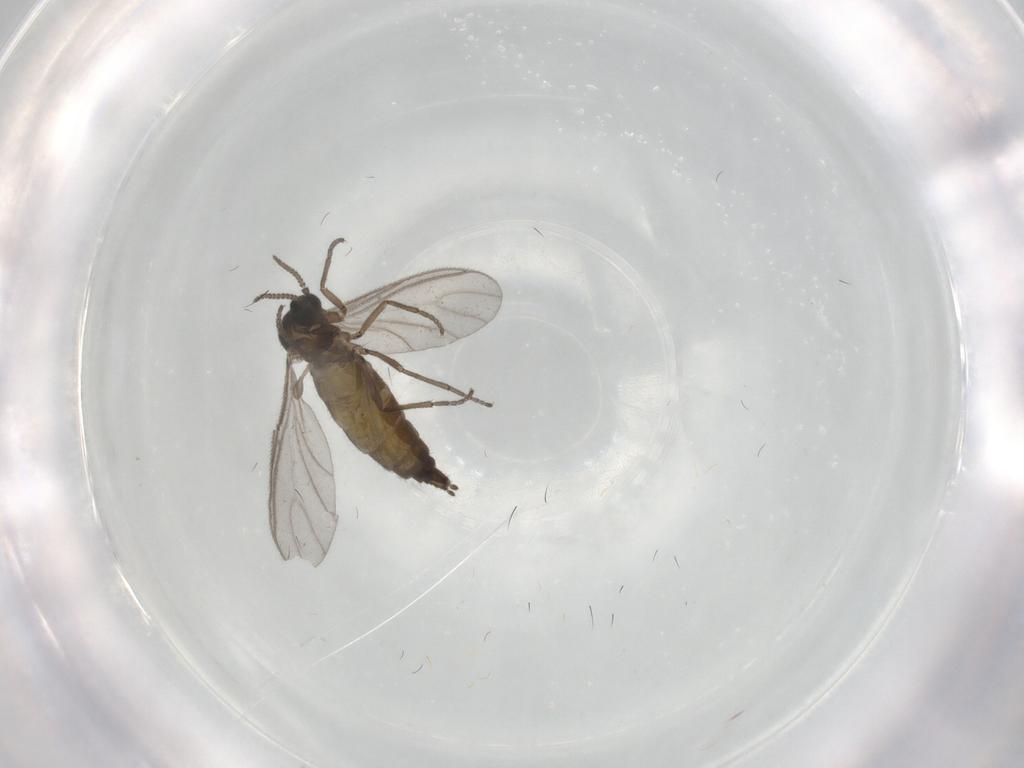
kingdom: Animalia
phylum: Arthropoda
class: Insecta
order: Diptera
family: Sciaridae
